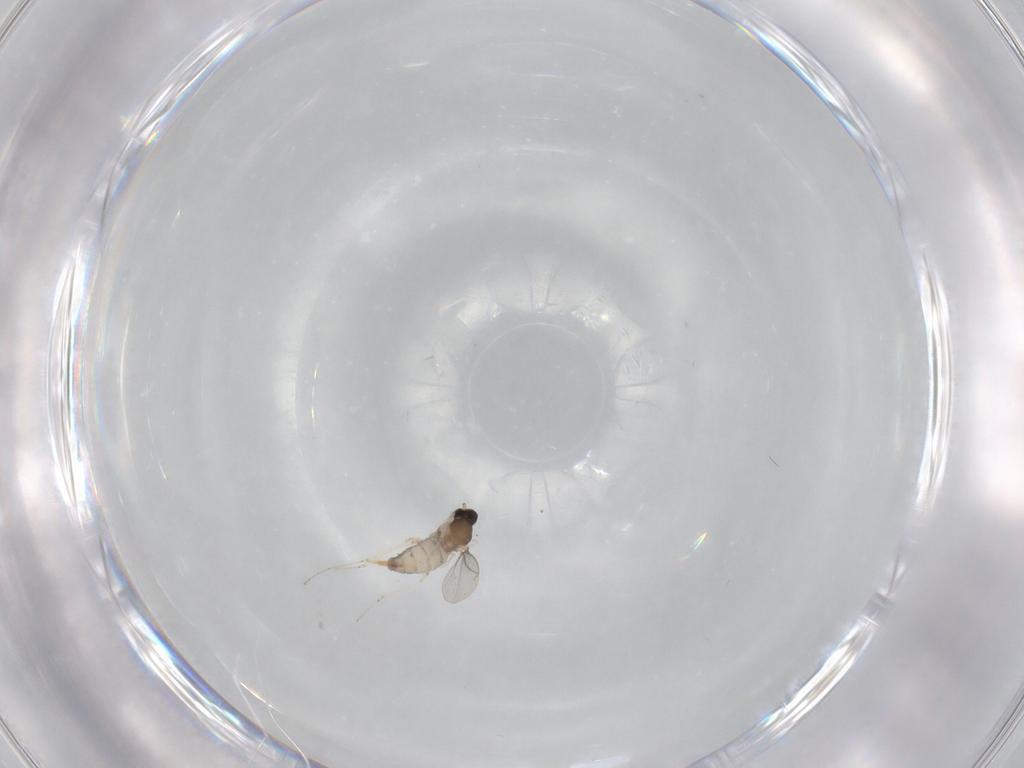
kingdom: Animalia
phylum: Arthropoda
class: Insecta
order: Diptera
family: Cecidomyiidae
